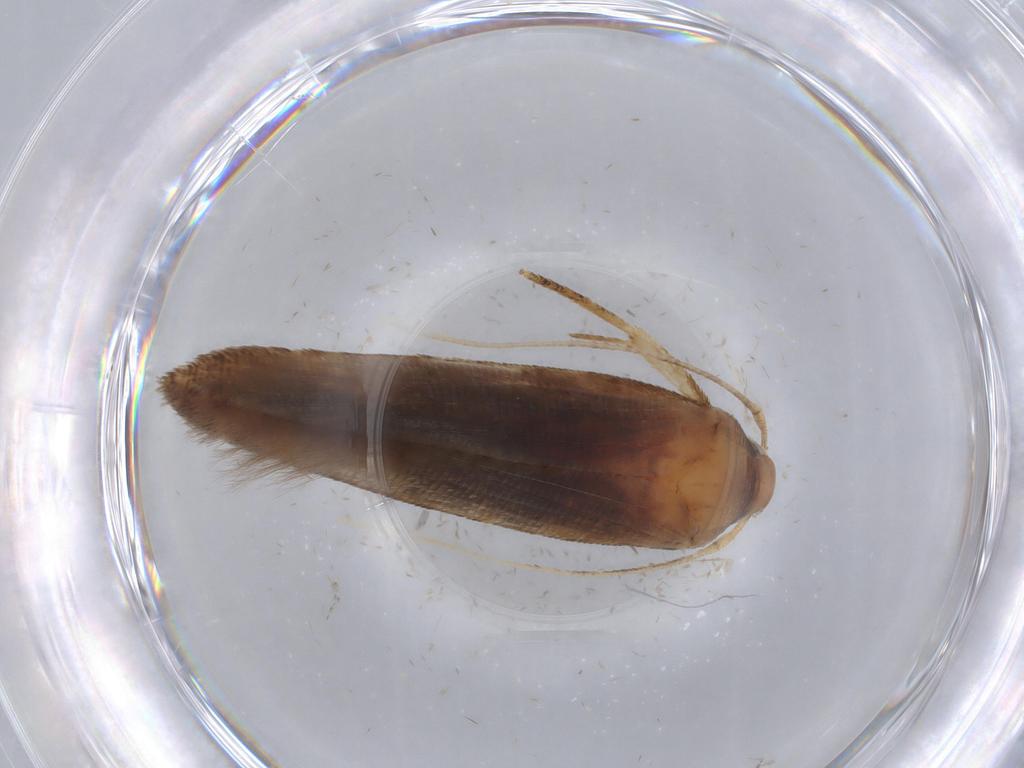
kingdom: Animalia
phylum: Arthropoda
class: Insecta
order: Lepidoptera
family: Cosmopterigidae
